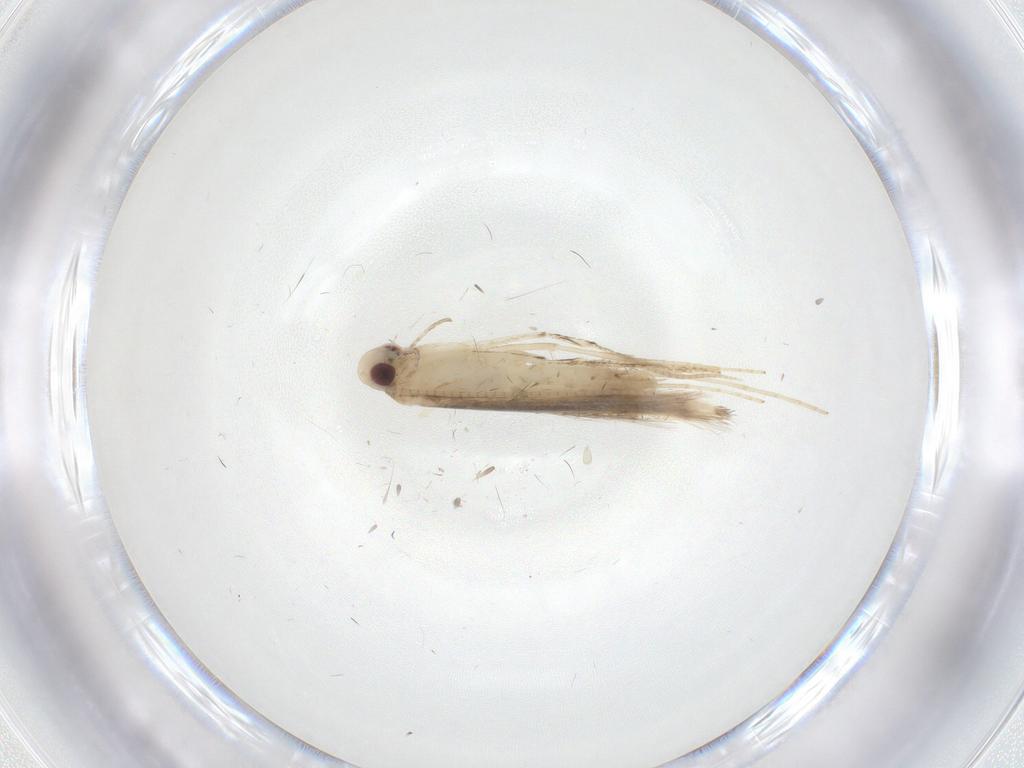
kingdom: Animalia
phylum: Arthropoda
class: Insecta
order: Lepidoptera
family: Gracillariidae
